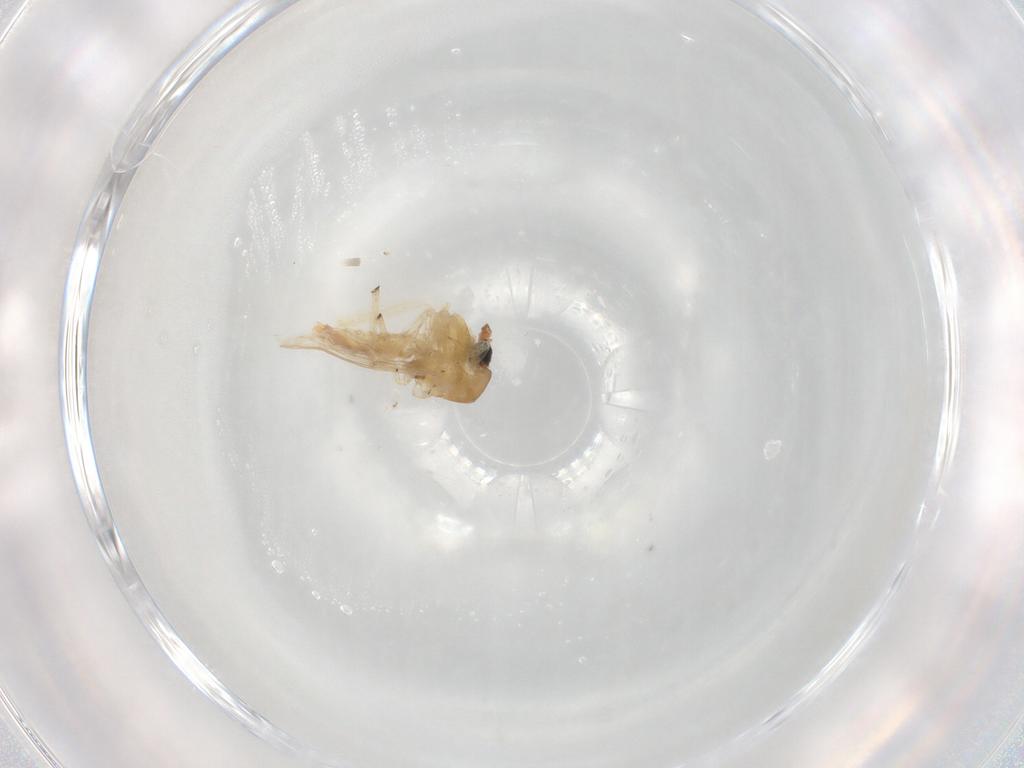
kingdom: Animalia
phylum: Arthropoda
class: Insecta
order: Diptera
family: Glossinidae
